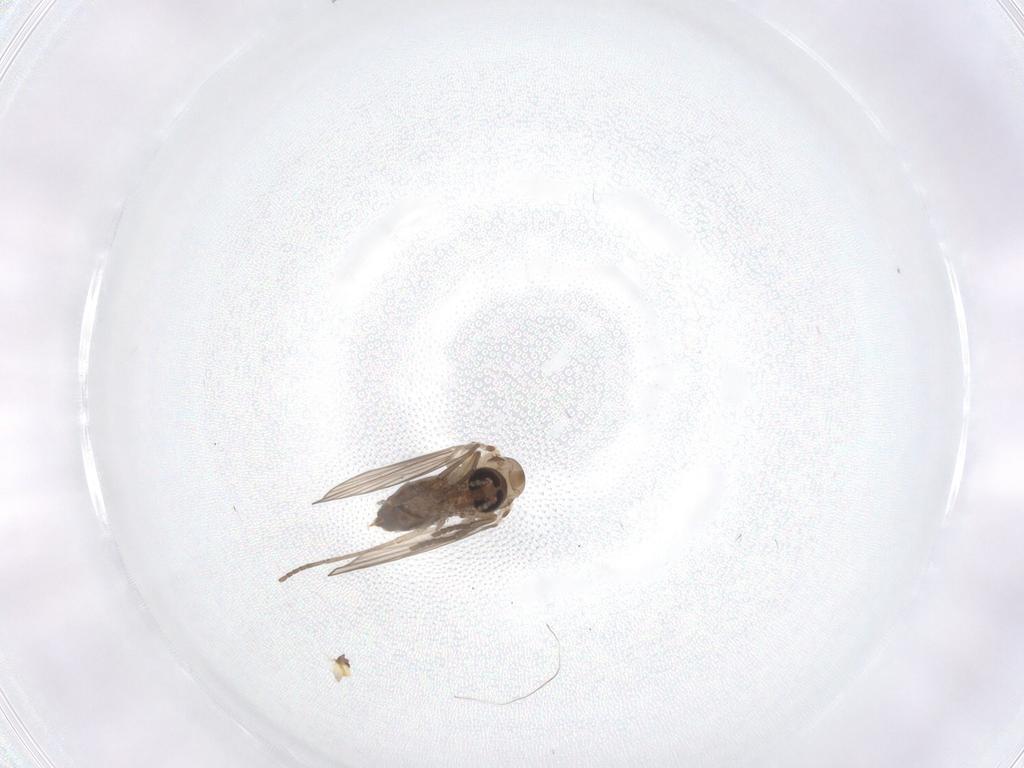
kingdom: Animalia
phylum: Arthropoda
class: Insecta
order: Diptera
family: Psychodidae
